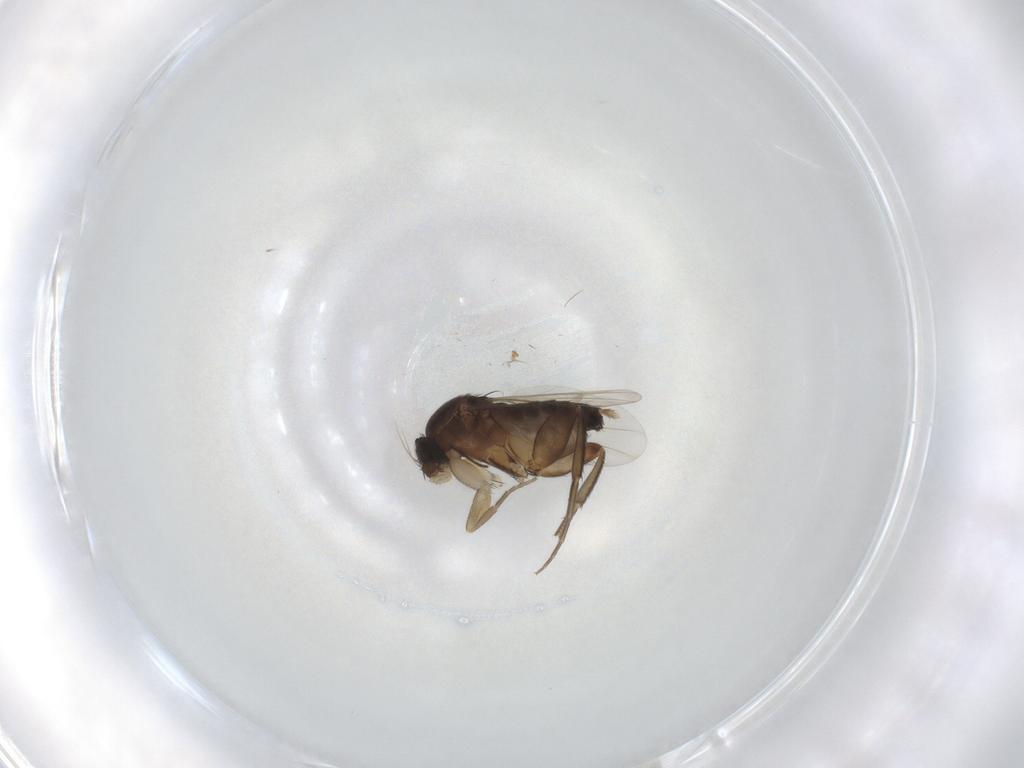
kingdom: Animalia
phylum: Arthropoda
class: Insecta
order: Diptera
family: Phoridae
